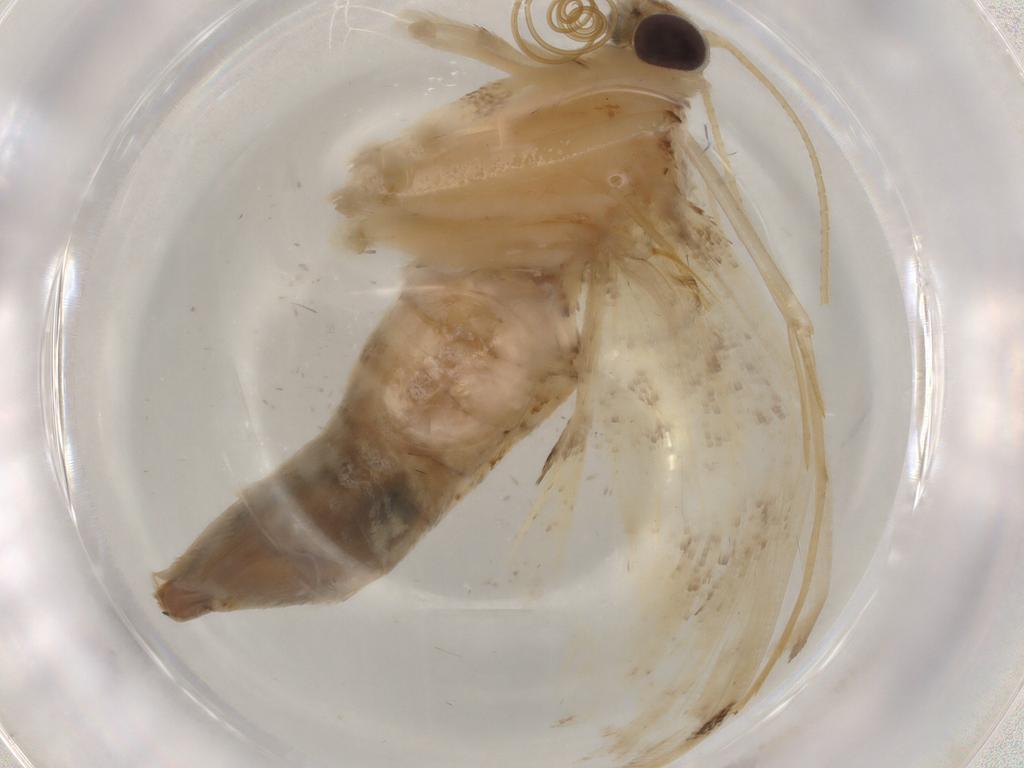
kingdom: Animalia
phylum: Arthropoda
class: Insecta
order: Lepidoptera
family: Crambidae
